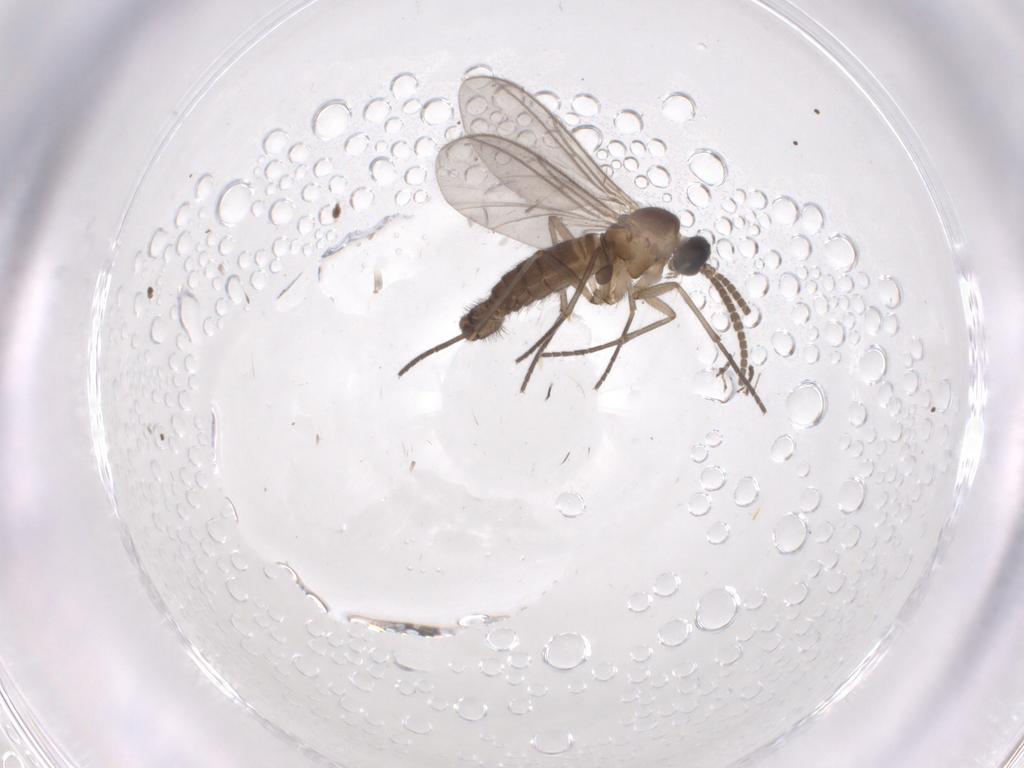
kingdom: Animalia
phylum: Arthropoda
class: Insecta
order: Diptera
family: Cecidomyiidae
